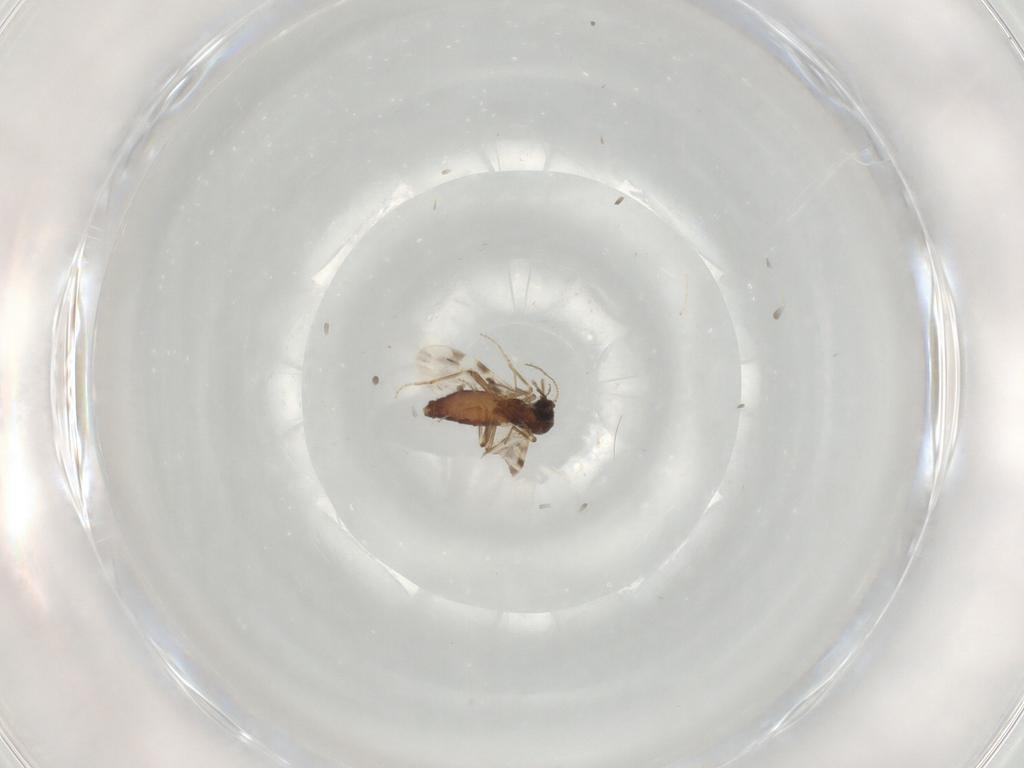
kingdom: Animalia
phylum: Arthropoda
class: Insecta
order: Diptera
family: Ceratopogonidae
